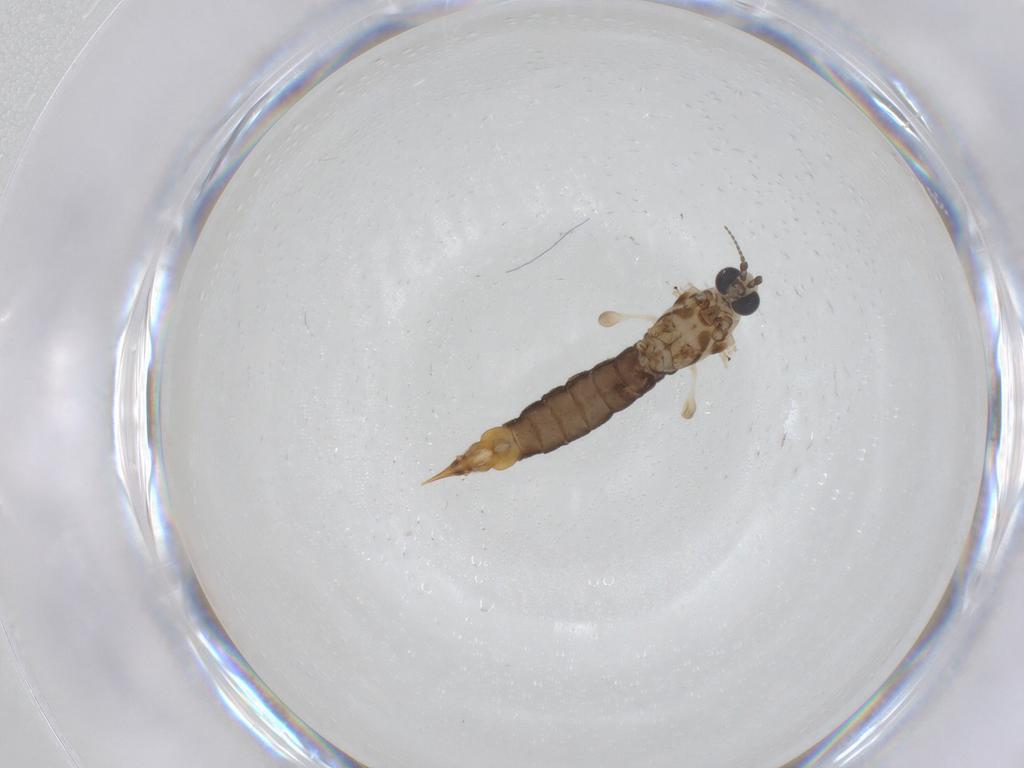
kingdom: Animalia
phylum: Arthropoda
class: Insecta
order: Diptera
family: Limoniidae
